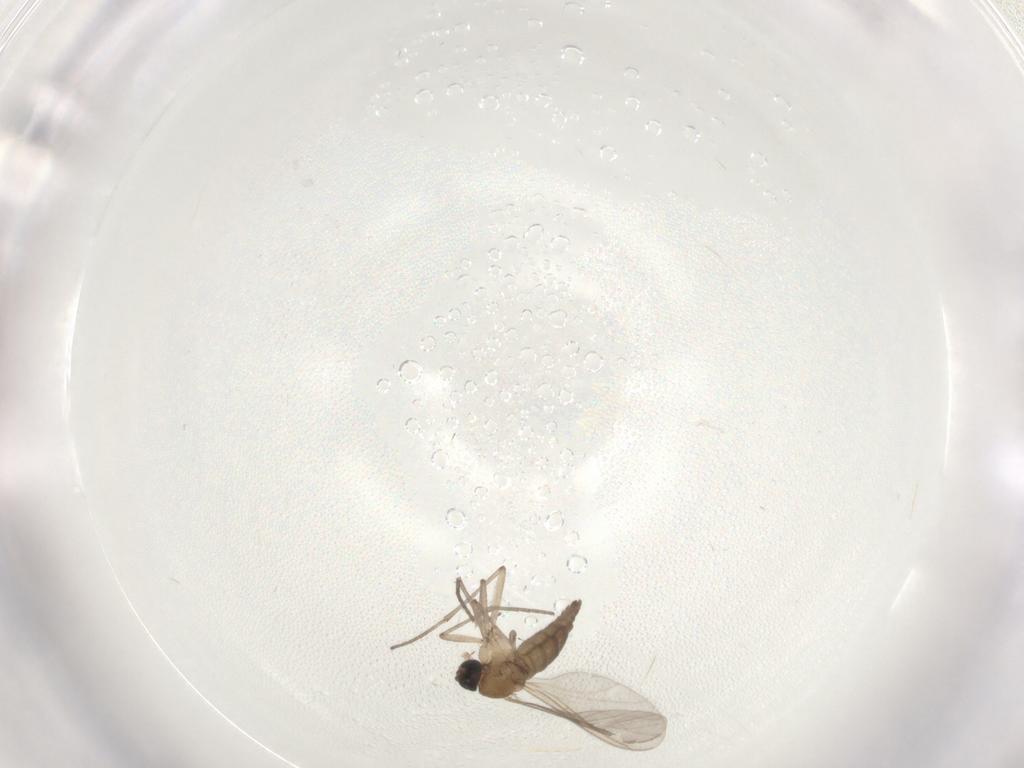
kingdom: Animalia
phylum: Arthropoda
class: Insecta
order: Diptera
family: Sciaridae
